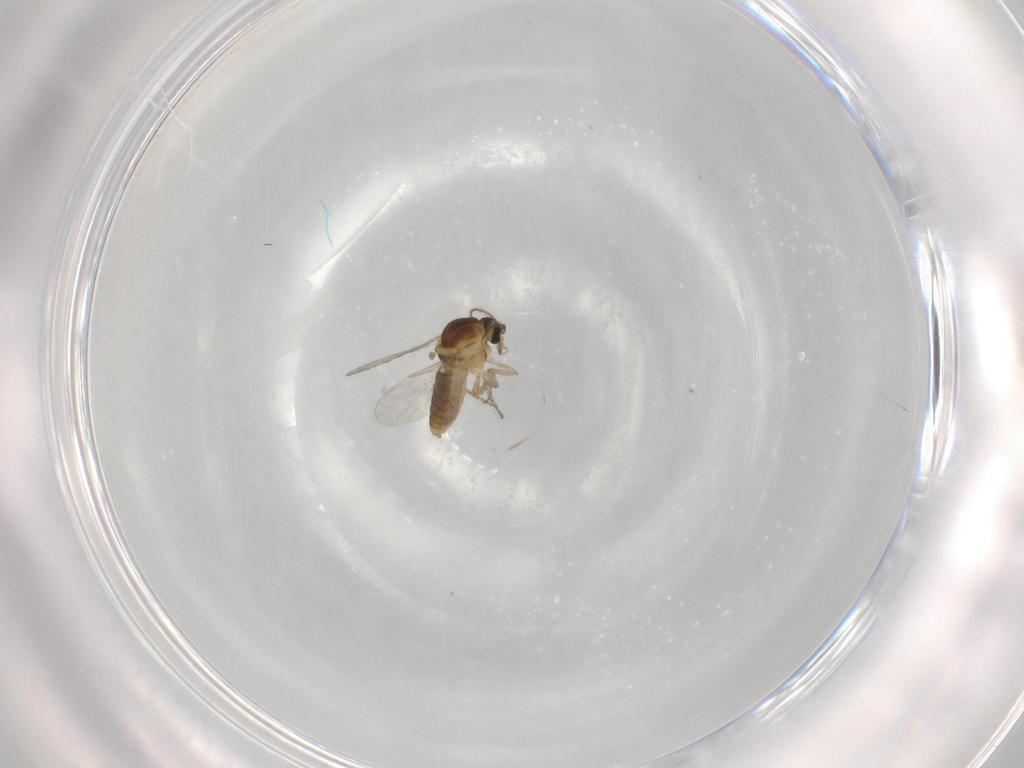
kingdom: Animalia
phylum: Arthropoda
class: Insecta
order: Diptera
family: Ceratopogonidae
